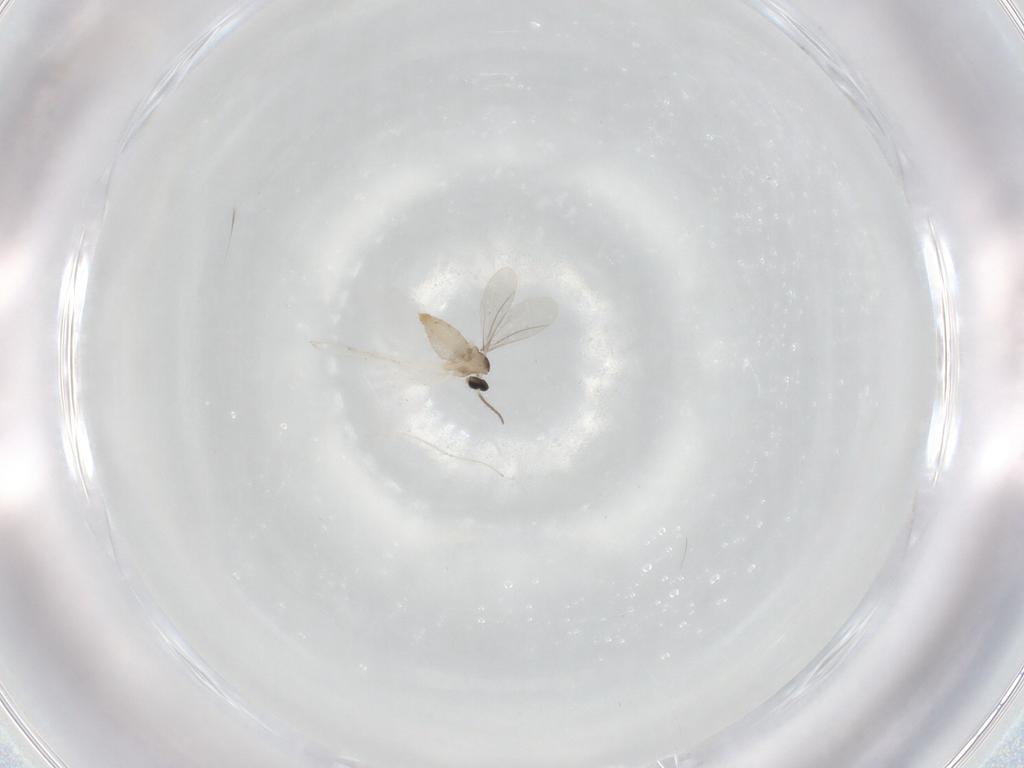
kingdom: Animalia
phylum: Arthropoda
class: Insecta
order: Diptera
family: Cecidomyiidae
